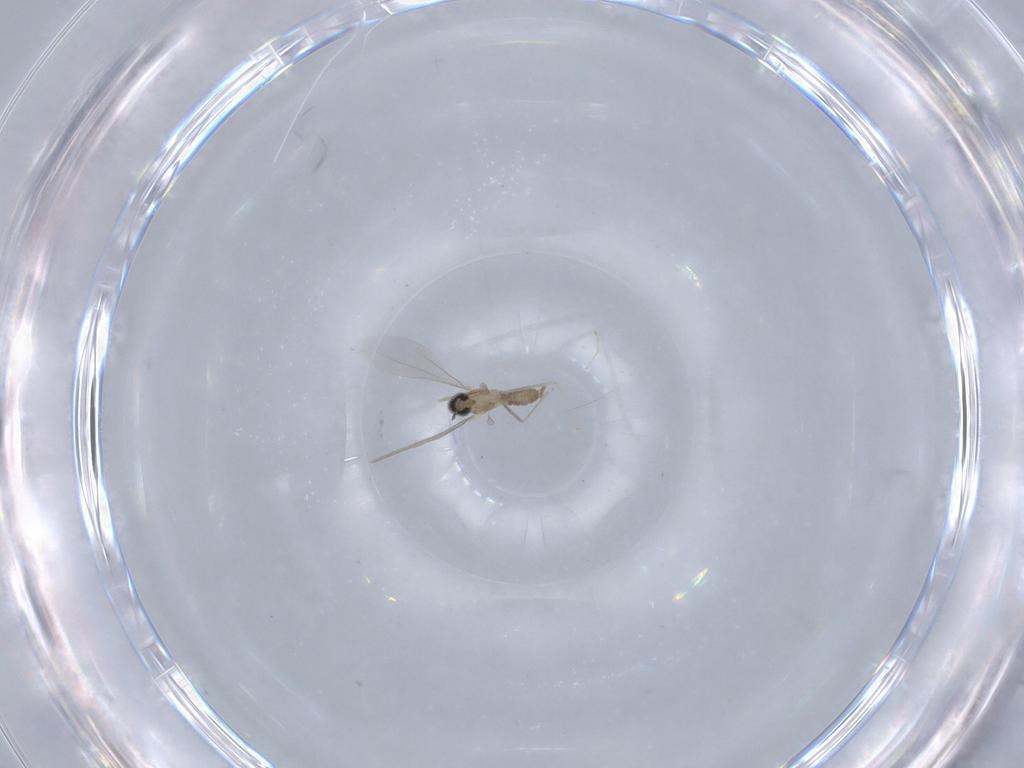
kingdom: Animalia
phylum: Arthropoda
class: Insecta
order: Diptera
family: Cecidomyiidae
